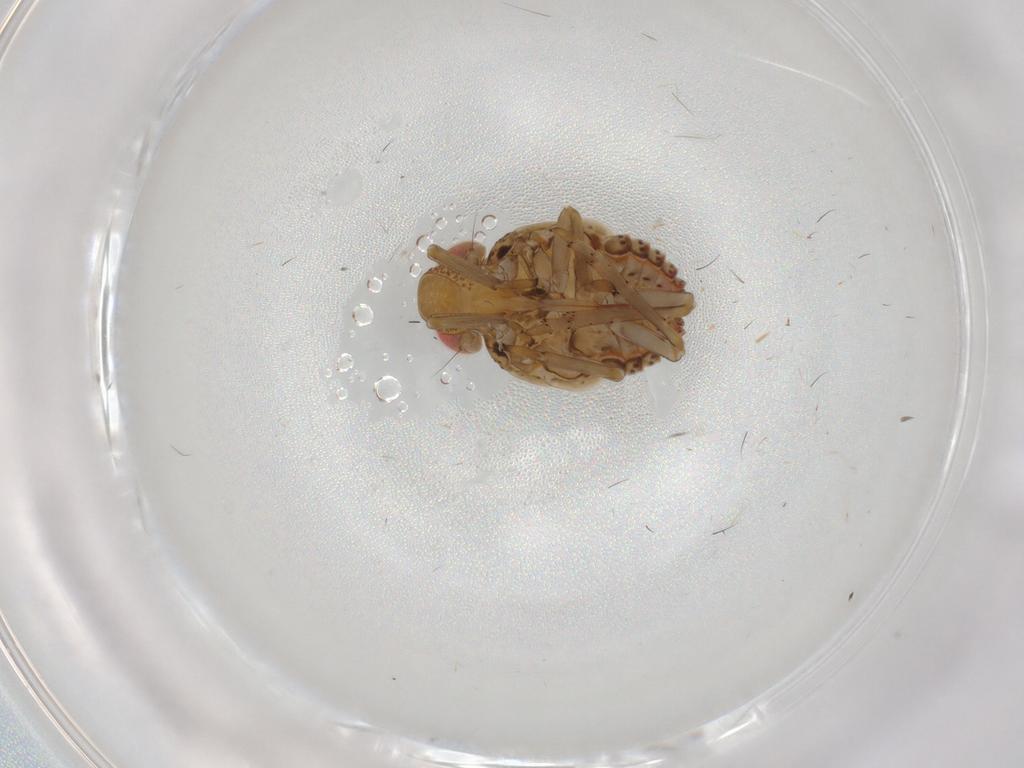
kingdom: Animalia
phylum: Arthropoda
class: Insecta
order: Hemiptera
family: Issidae
